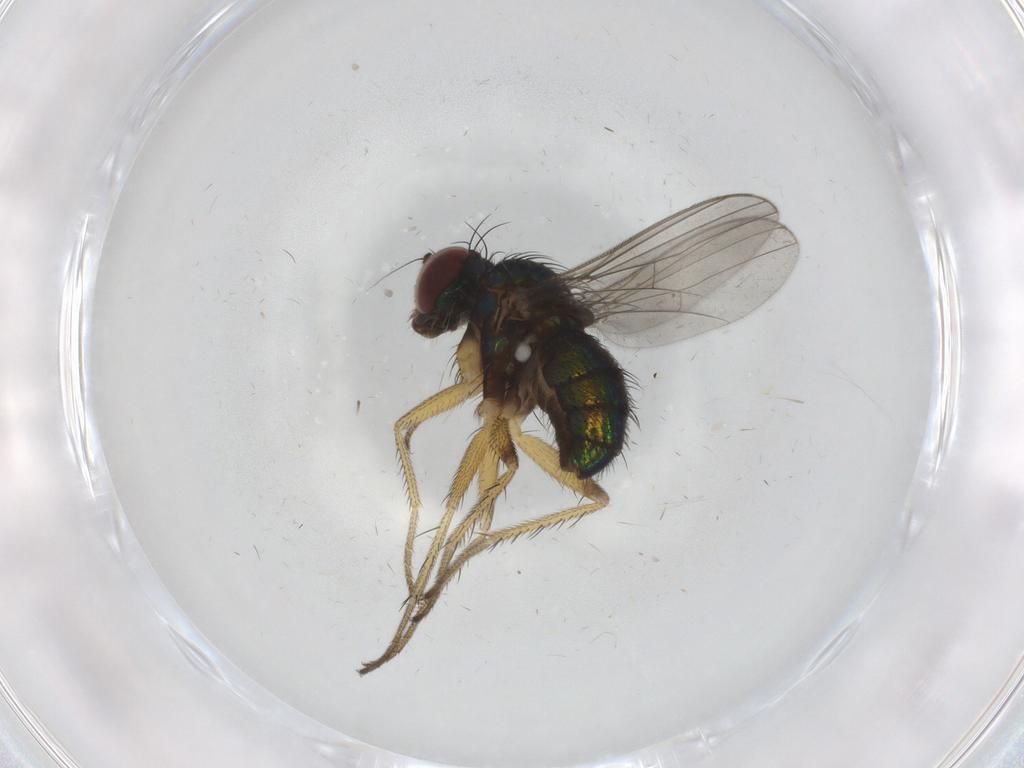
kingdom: Animalia
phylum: Arthropoda
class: Insecta
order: Diptera
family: Dolichopodidae
